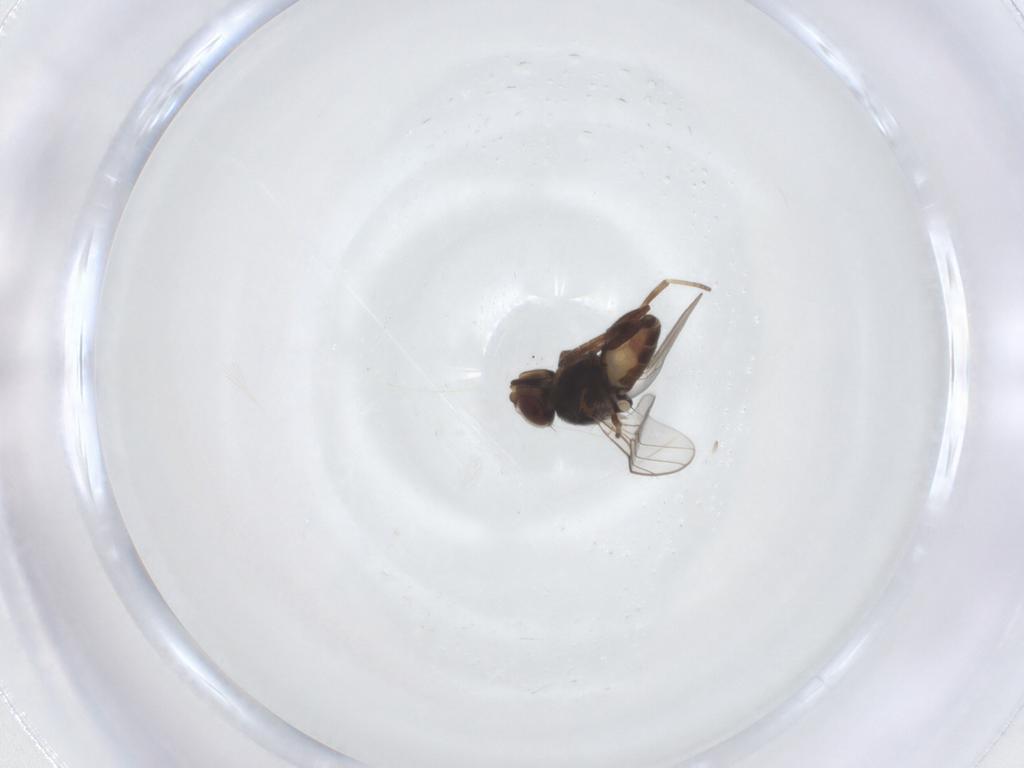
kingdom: Animalia
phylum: Arthropoda
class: Insecta
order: Diptera
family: Chloropidae
